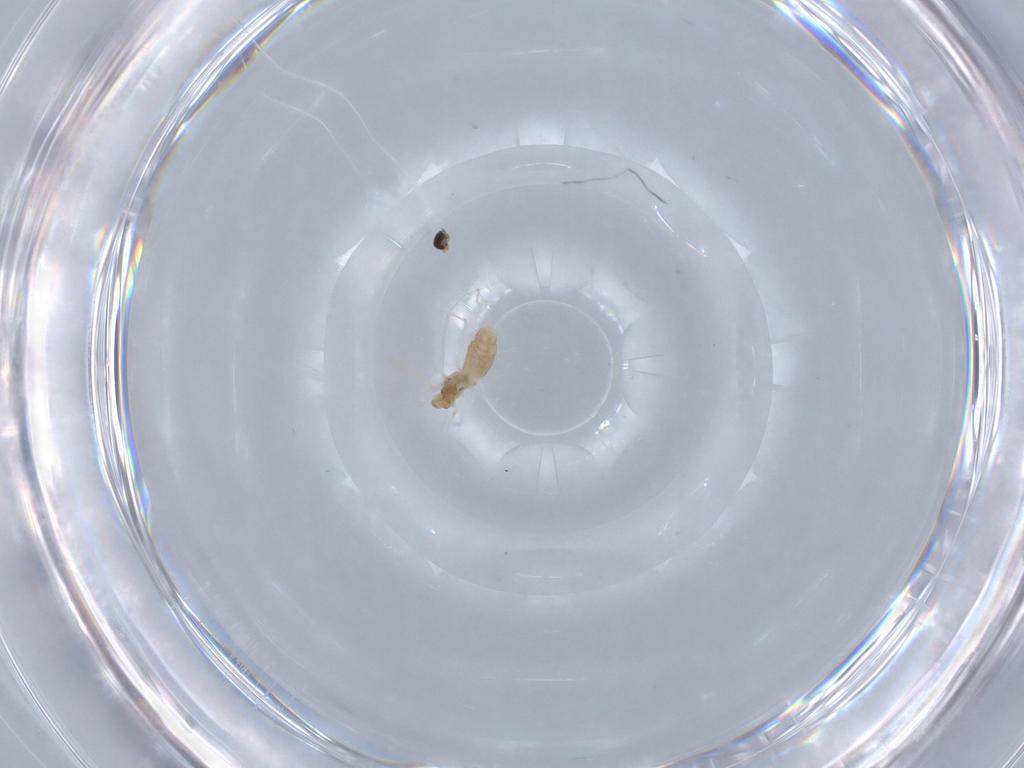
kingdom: Animalia
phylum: Arthropoda
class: Insecta
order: Diptera
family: Cecidomyiidae
